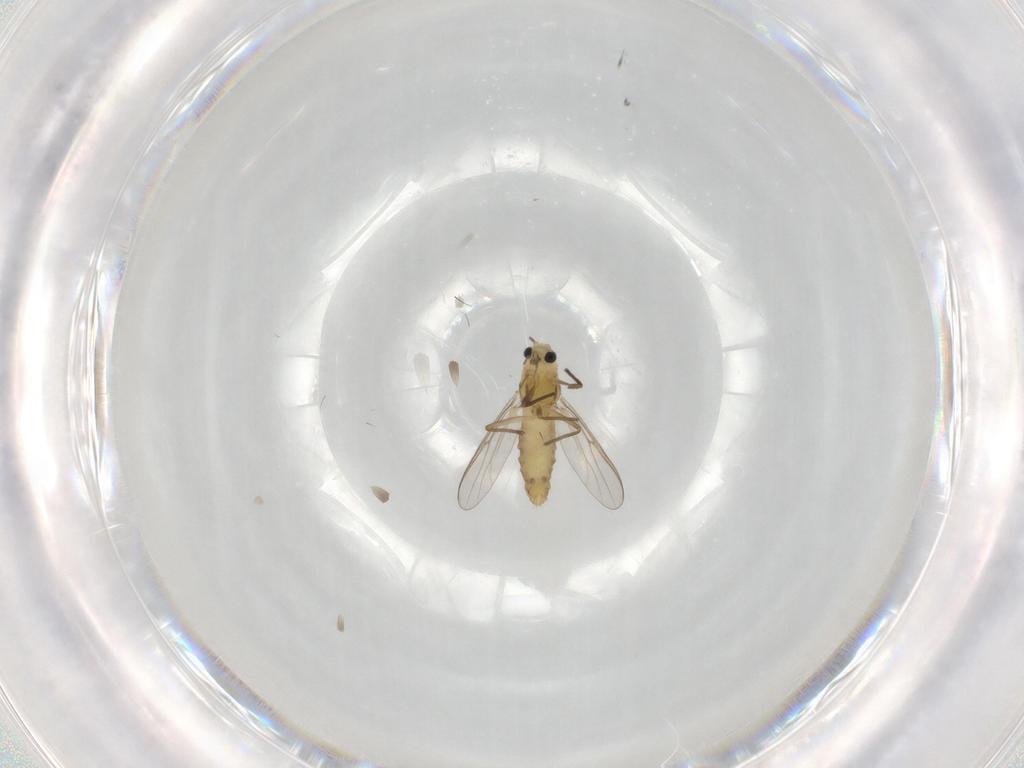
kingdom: Animalia
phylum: Arthropoda
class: Insecta
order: Diptera
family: Chironomidae
